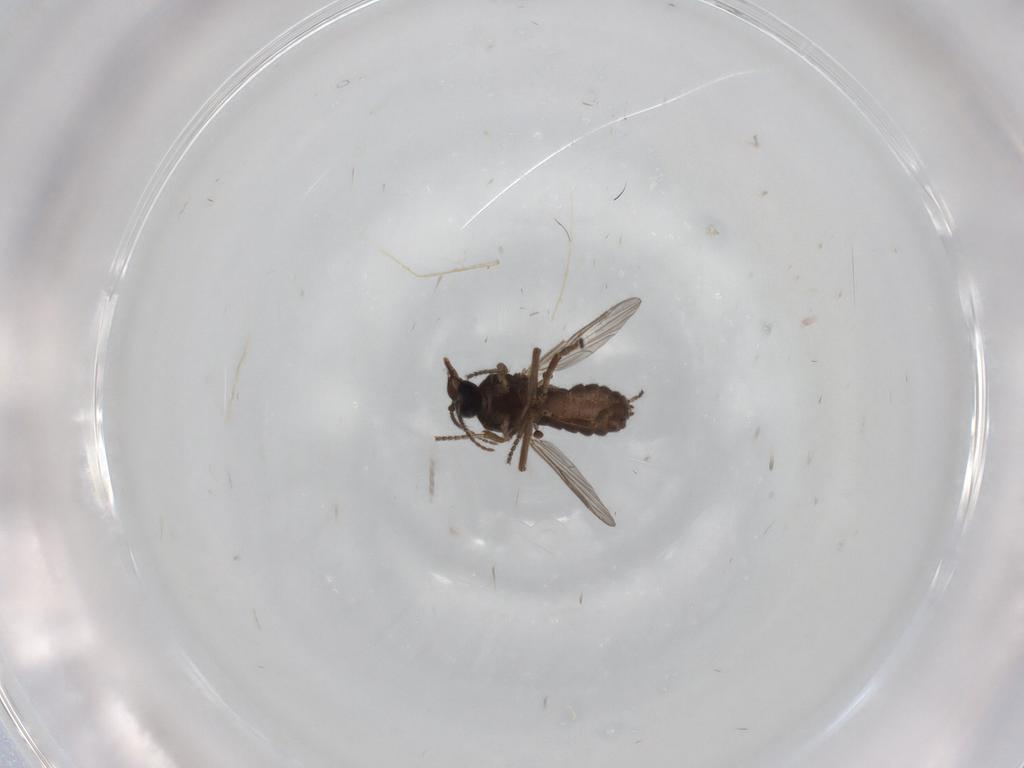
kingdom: Animalia
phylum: Arthropoda
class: Insecta
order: Diptera
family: Ceratopogonidae
